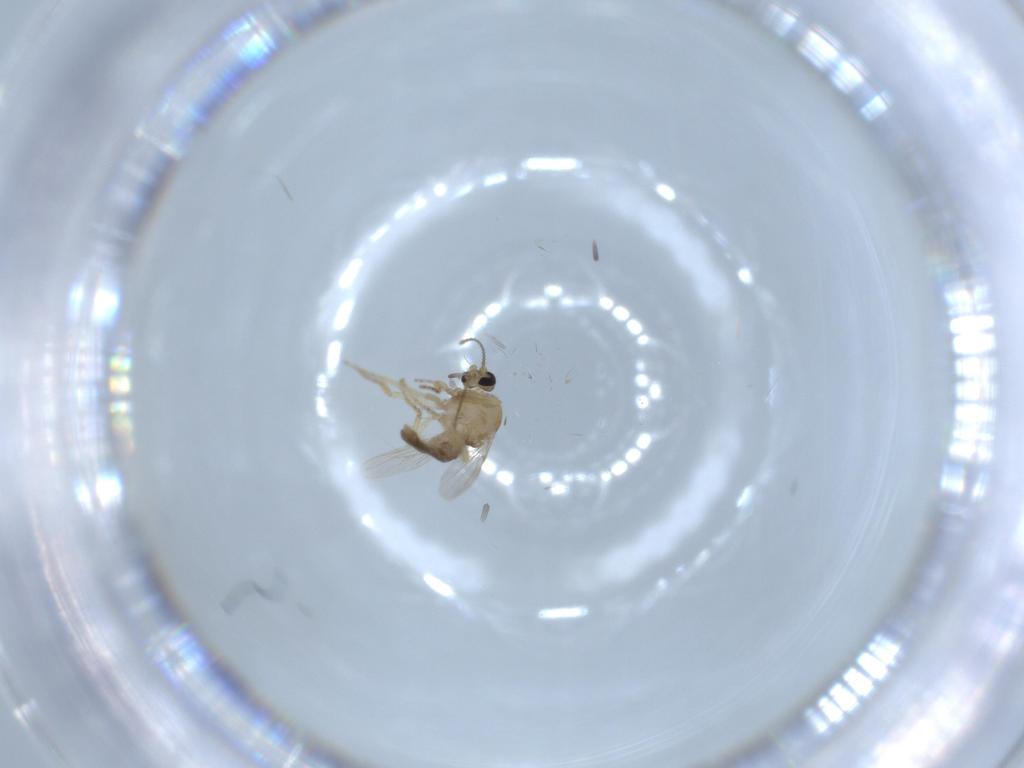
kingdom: Animalia
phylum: Arthropoda
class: Insecta
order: Diptera
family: Ceratopogonidae
